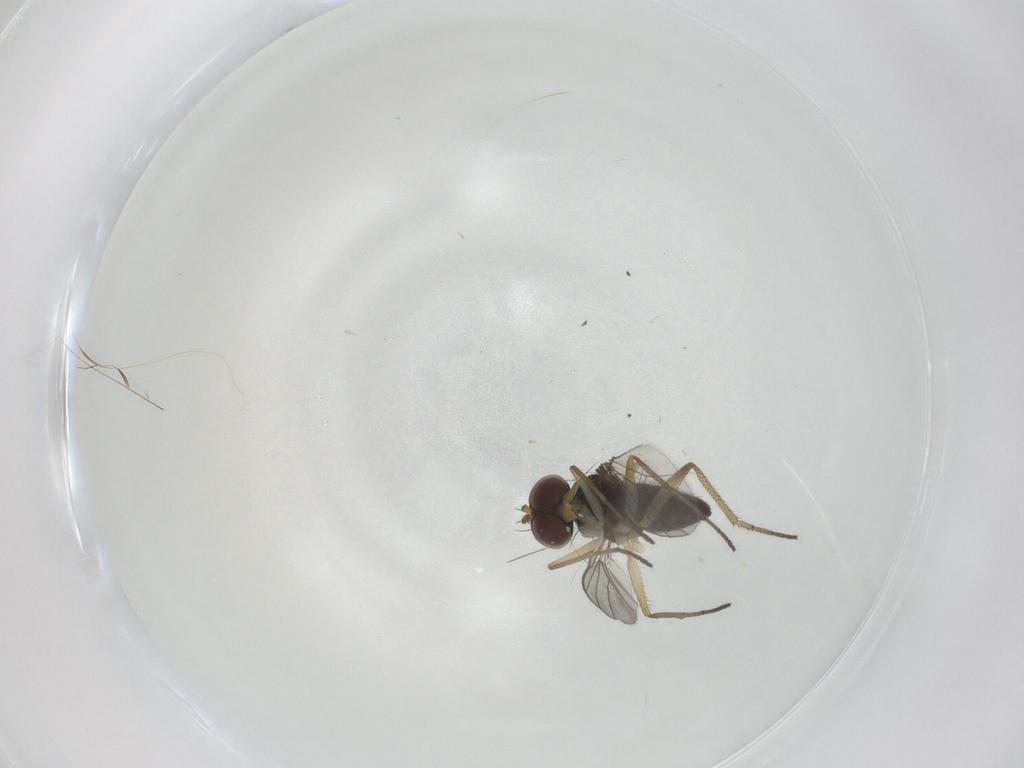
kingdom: Animalia
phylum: Arthropoda
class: Insecta
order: Diptera
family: Dolichopodidae
